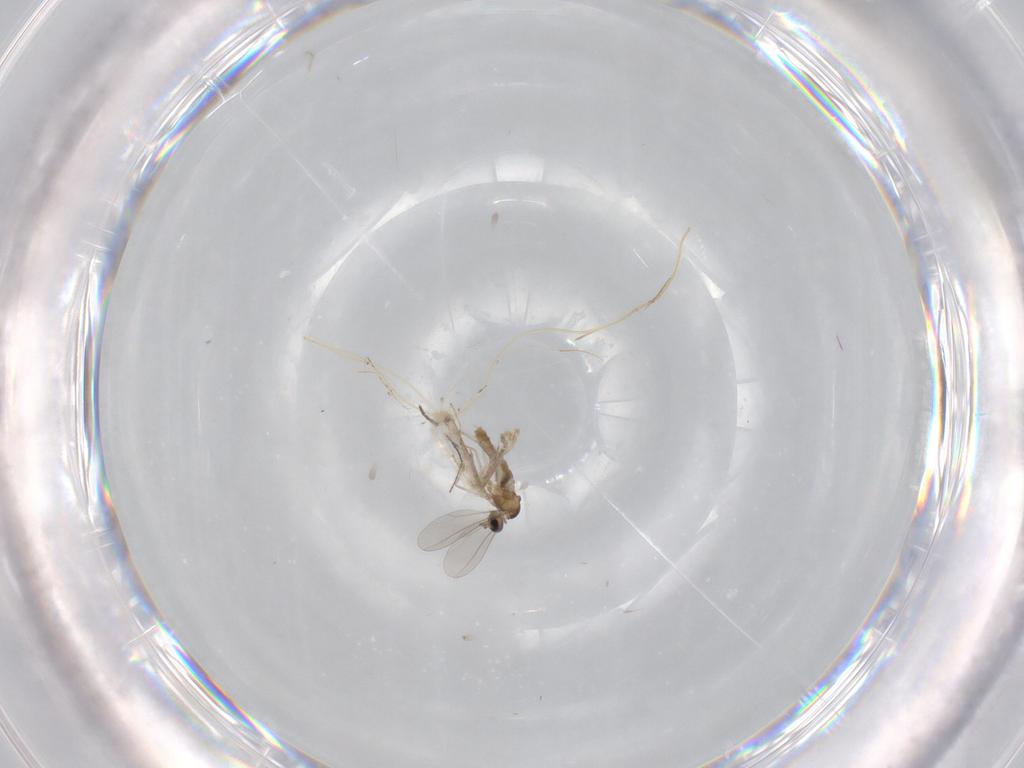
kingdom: Animalia
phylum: Arthropoda
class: Insecta
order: Diptera
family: Cecidomyiidae
